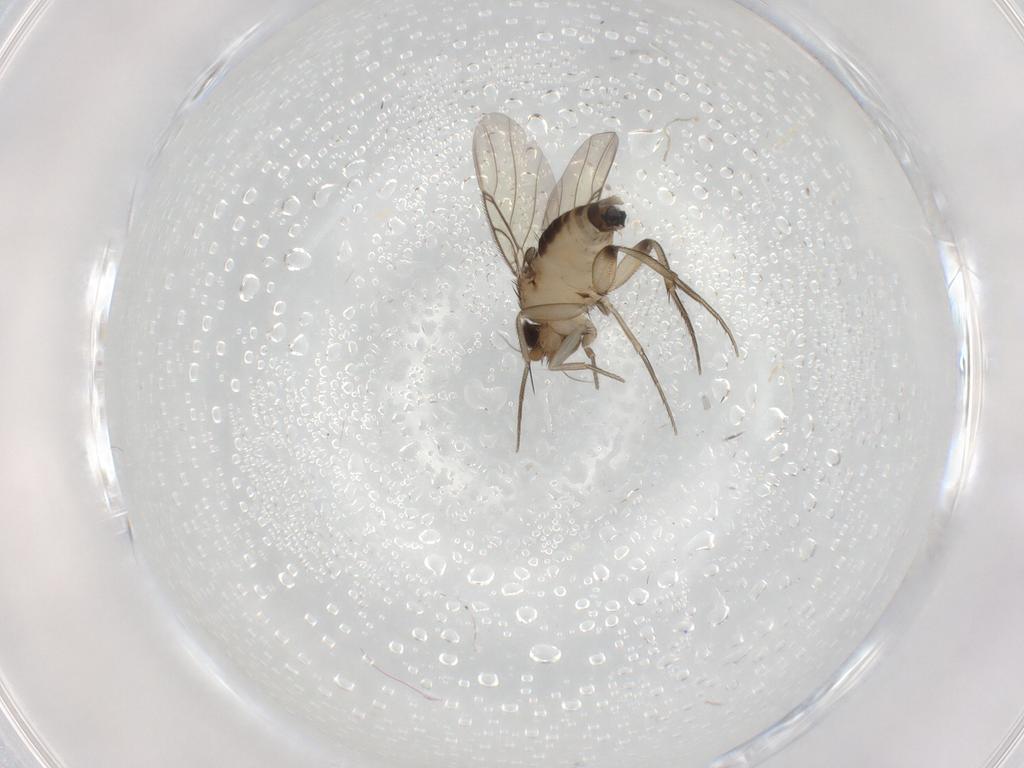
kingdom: Animalia
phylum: Arthropoda
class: Insecta
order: Diptera
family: Phoridae
